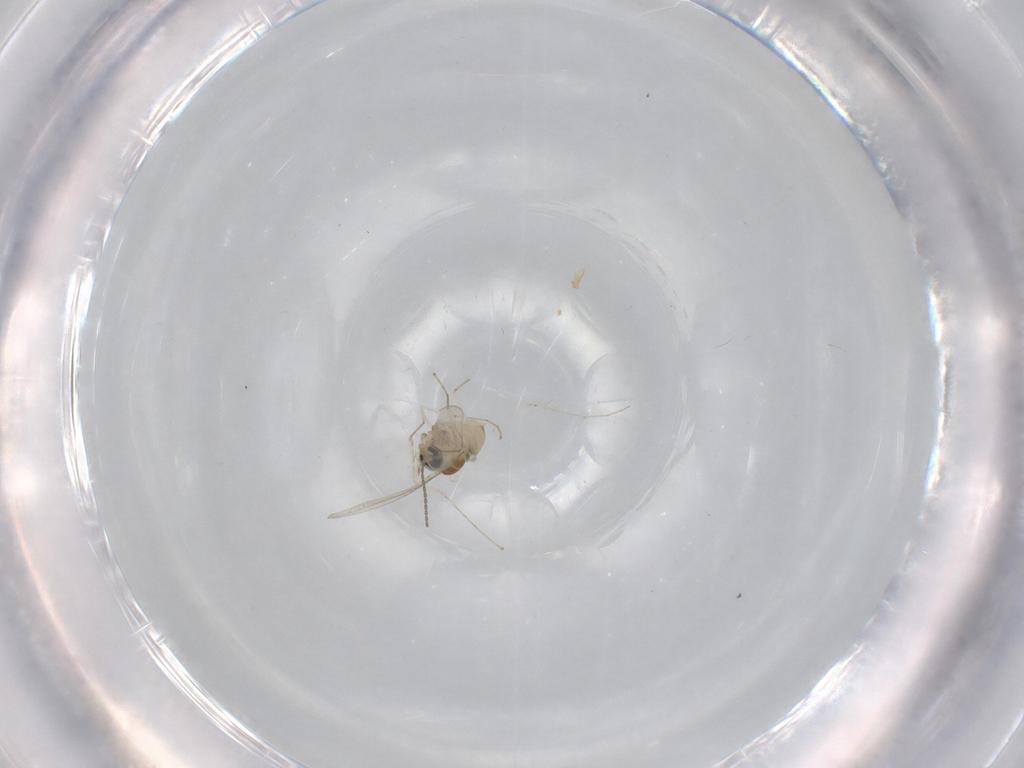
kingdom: Animalia
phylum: Arthropoda
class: Insecta
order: Diptera
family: Cecidomyiidae
